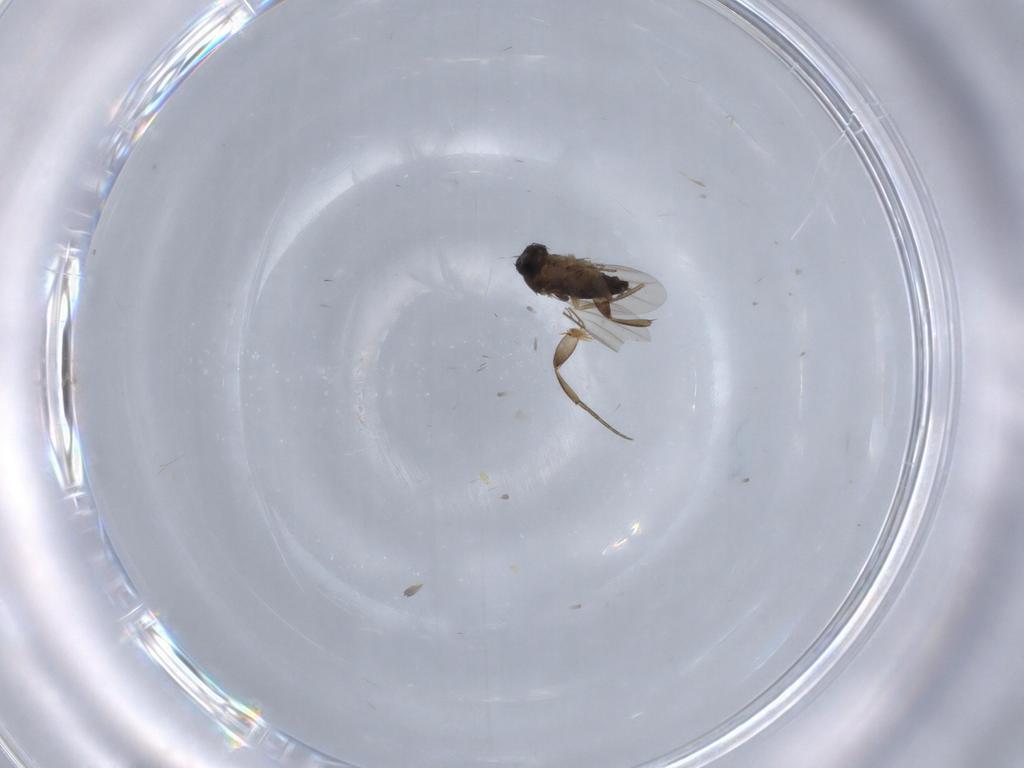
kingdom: Animalia
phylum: Arthropoda
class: Insecta
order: Diptera
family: Phoridae
